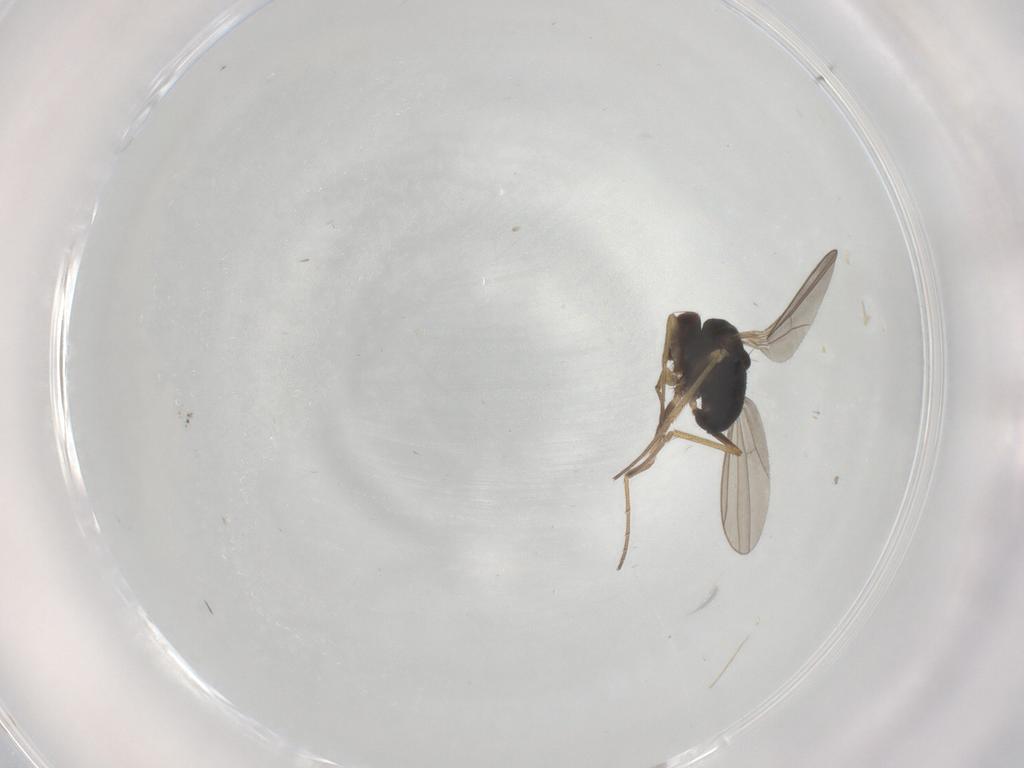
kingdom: Animalia
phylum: Arthropoda
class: Insecta
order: Diptera
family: Dolichopodidae
